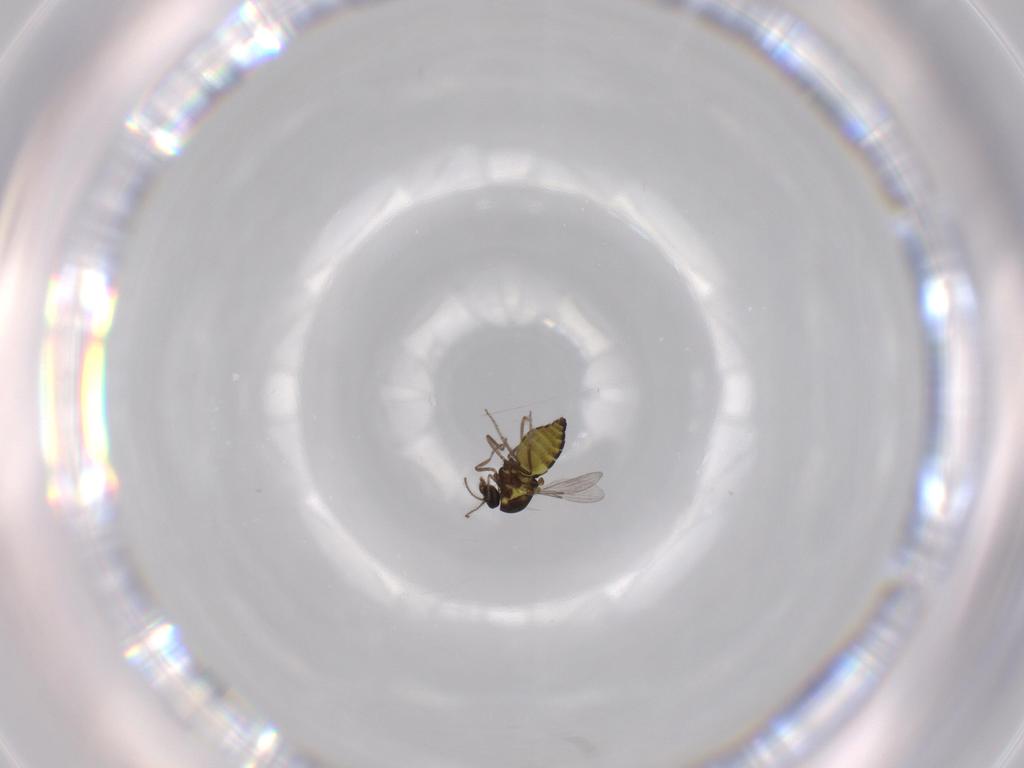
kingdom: Animalia
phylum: Arthropoda
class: Insecta
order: Diptera
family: Ceratopogonidae
